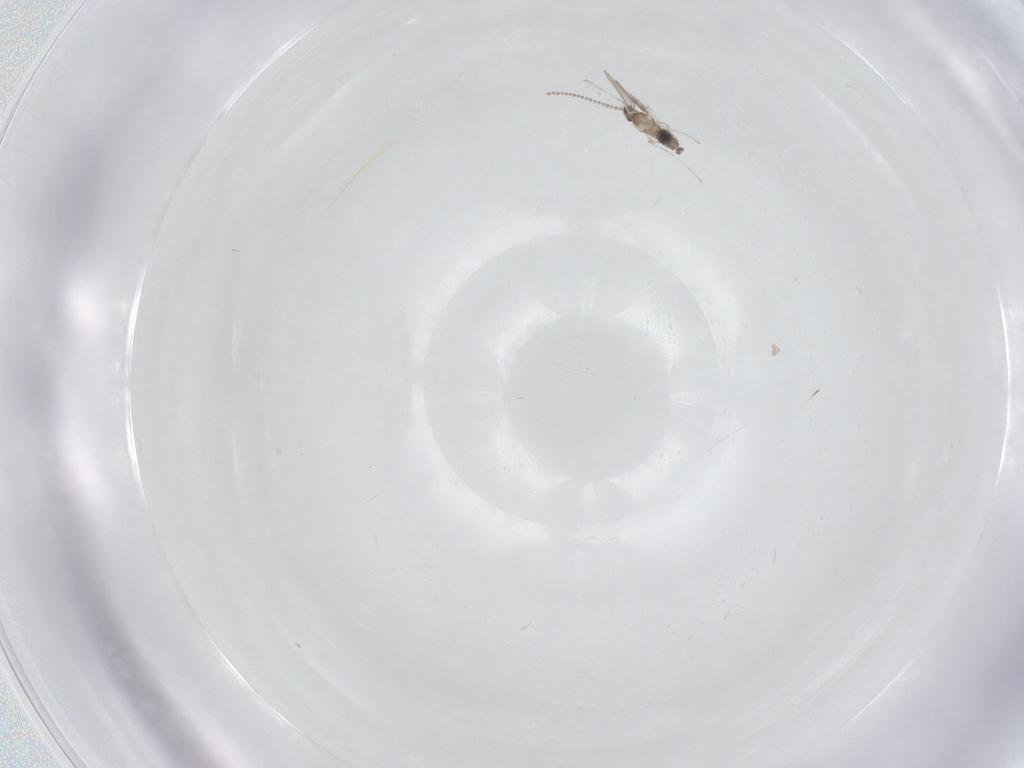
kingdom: Animalia
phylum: Arthropoda
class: Insecta
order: Diptera
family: Cecidomyiidae
